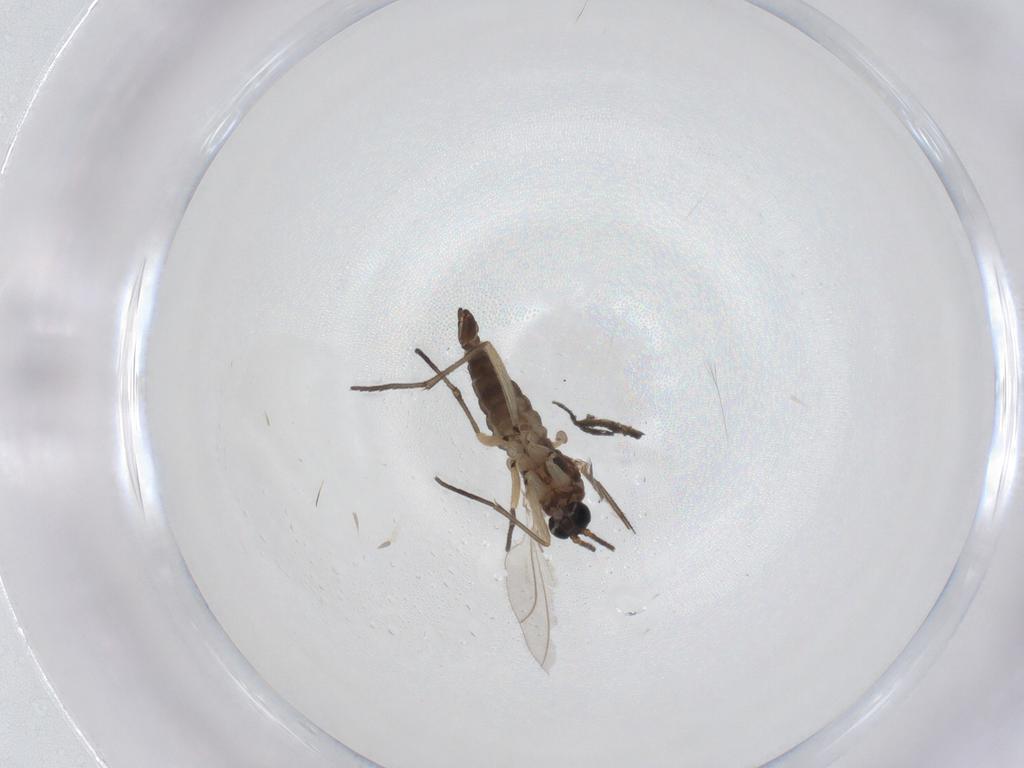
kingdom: Animalia
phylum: Arthropoda
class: Insecta
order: Diptera
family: Sciaridae
